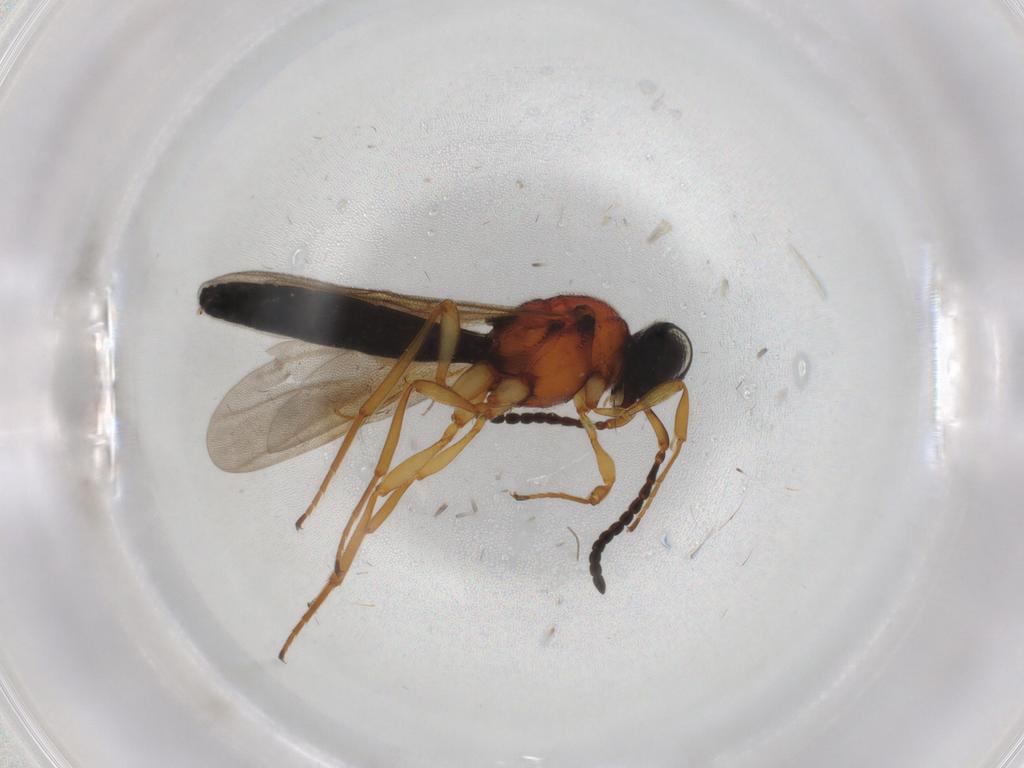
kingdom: Animalia
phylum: Arthropoda
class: Insecta
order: Hymenoptera
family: Scelionidae
